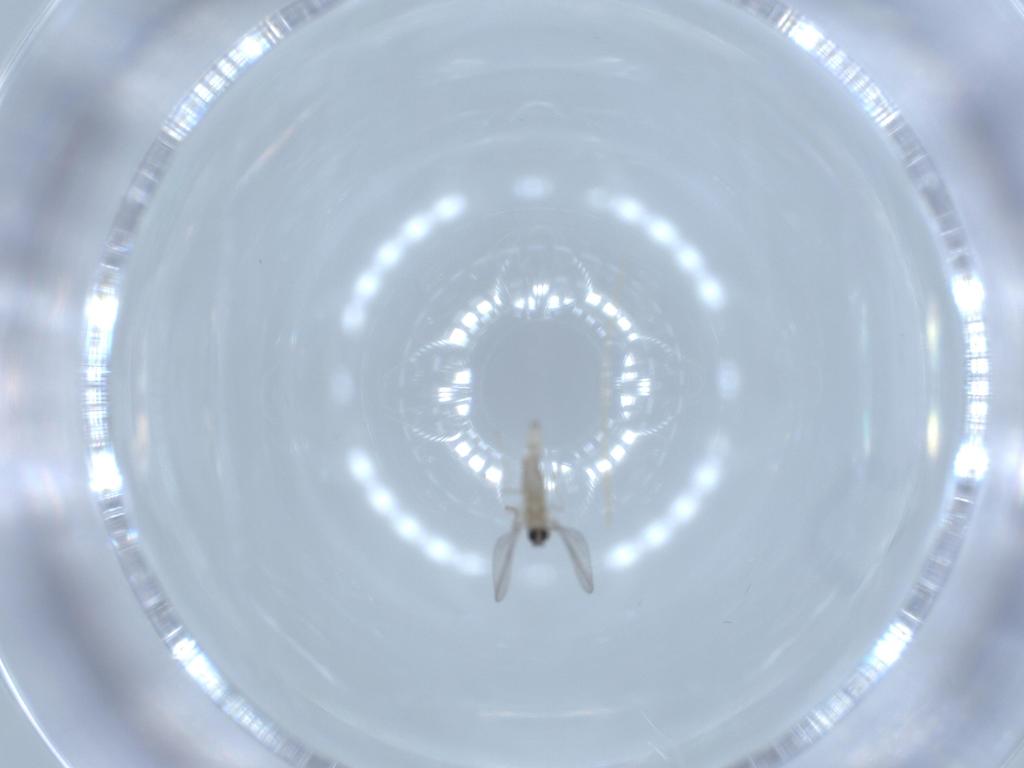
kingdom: Animalia
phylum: Arthropoda
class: Insecta
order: Diptera
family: Cecidomyiidae
